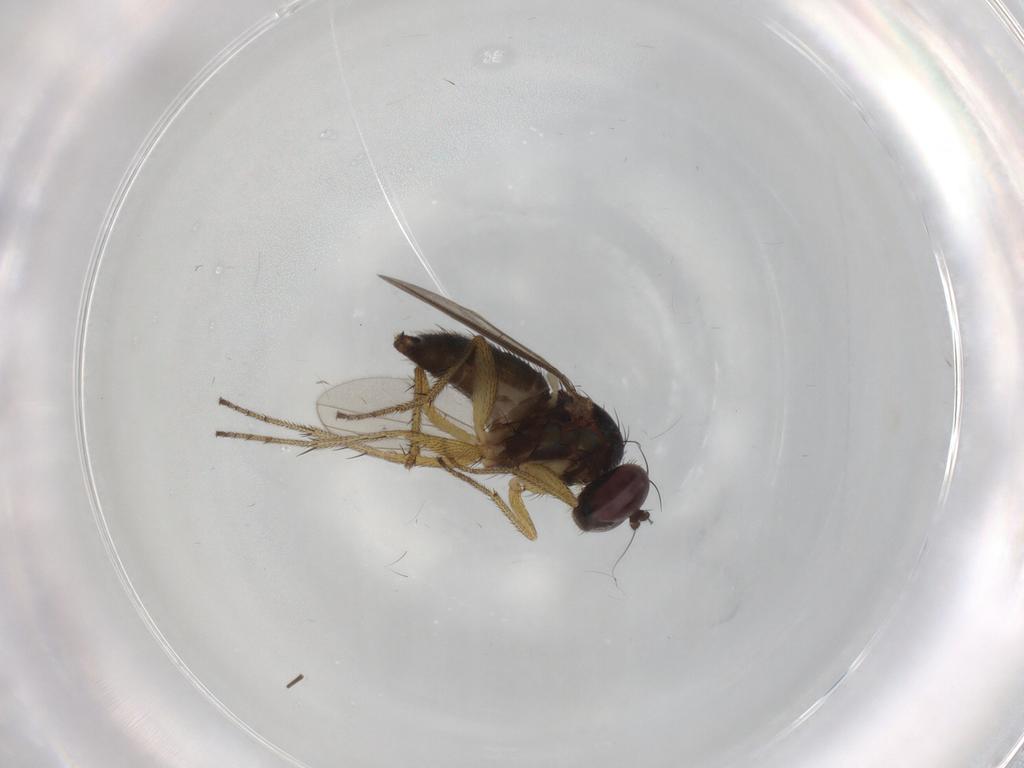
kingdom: Animalia
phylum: Arthropoda
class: Insecta
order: Diptera
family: Chironomidae
